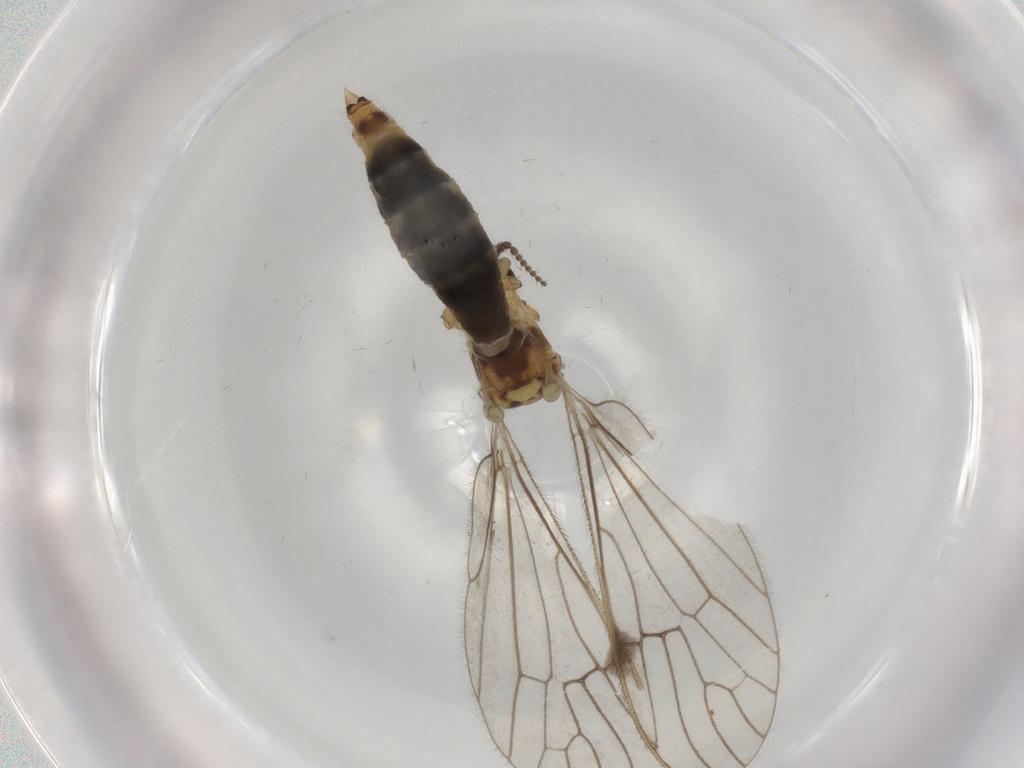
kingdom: Animalia
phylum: Arthropoda
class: Insecta
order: Diptera
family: Limoniidae
